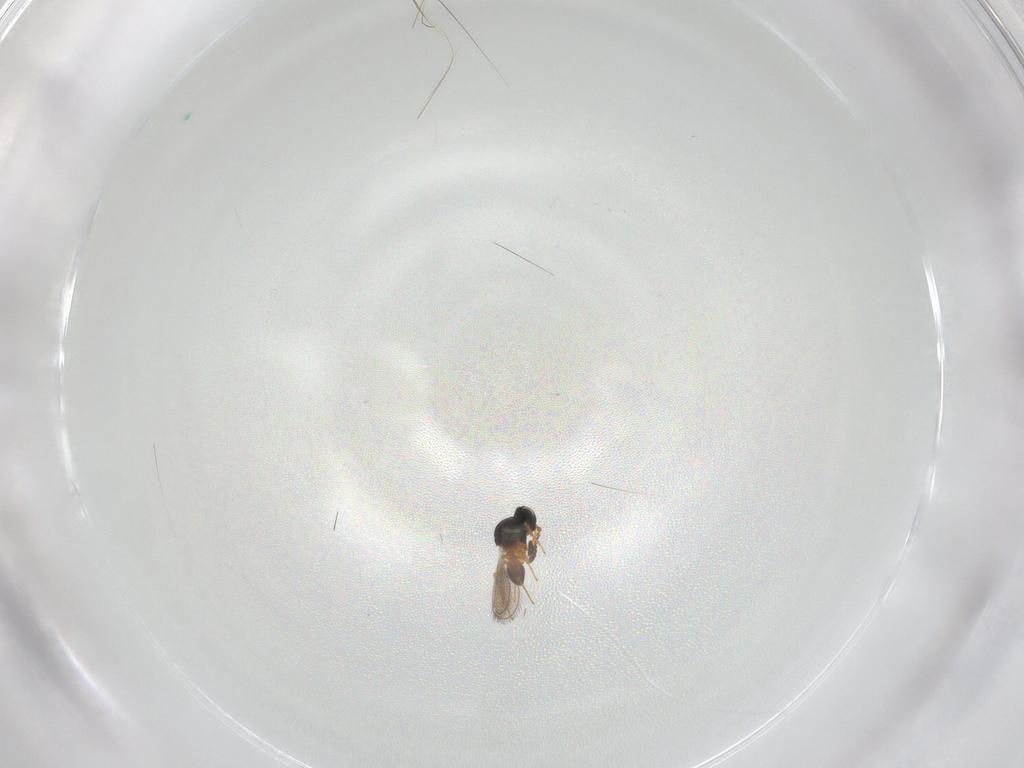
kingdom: Animalia
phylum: Arthropoda
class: Insecta
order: Hymenoptera
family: Platygastridae
